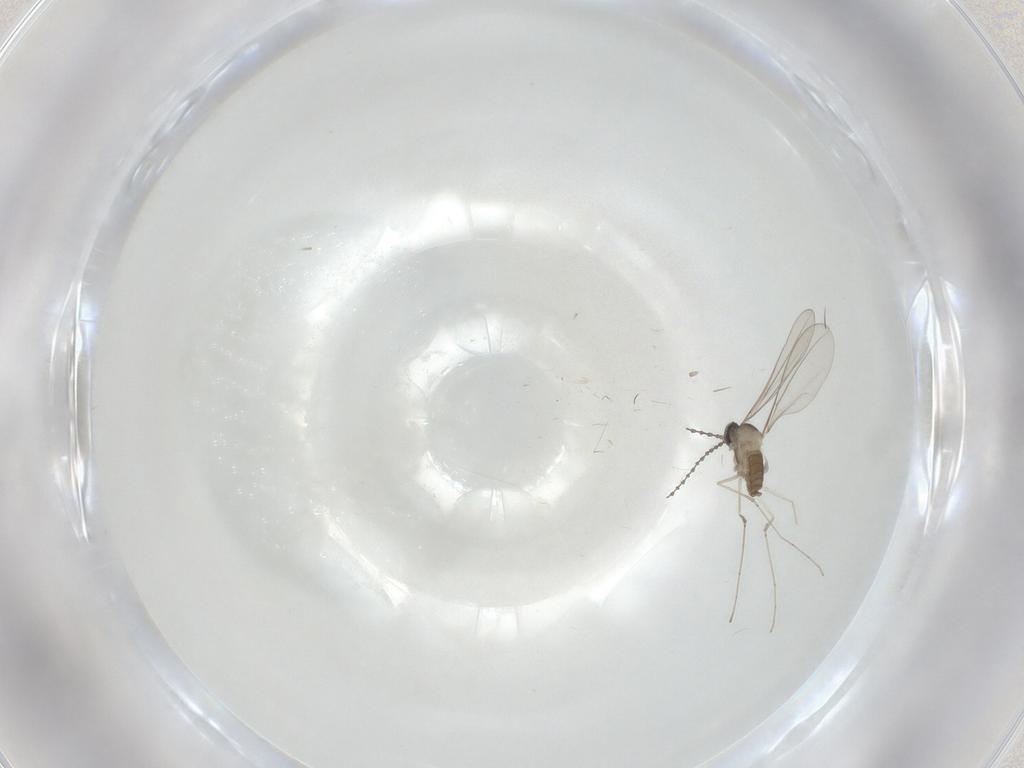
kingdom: Animalia
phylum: Arthropoda
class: Insecta
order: Diptera
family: Cecidomyiidae
